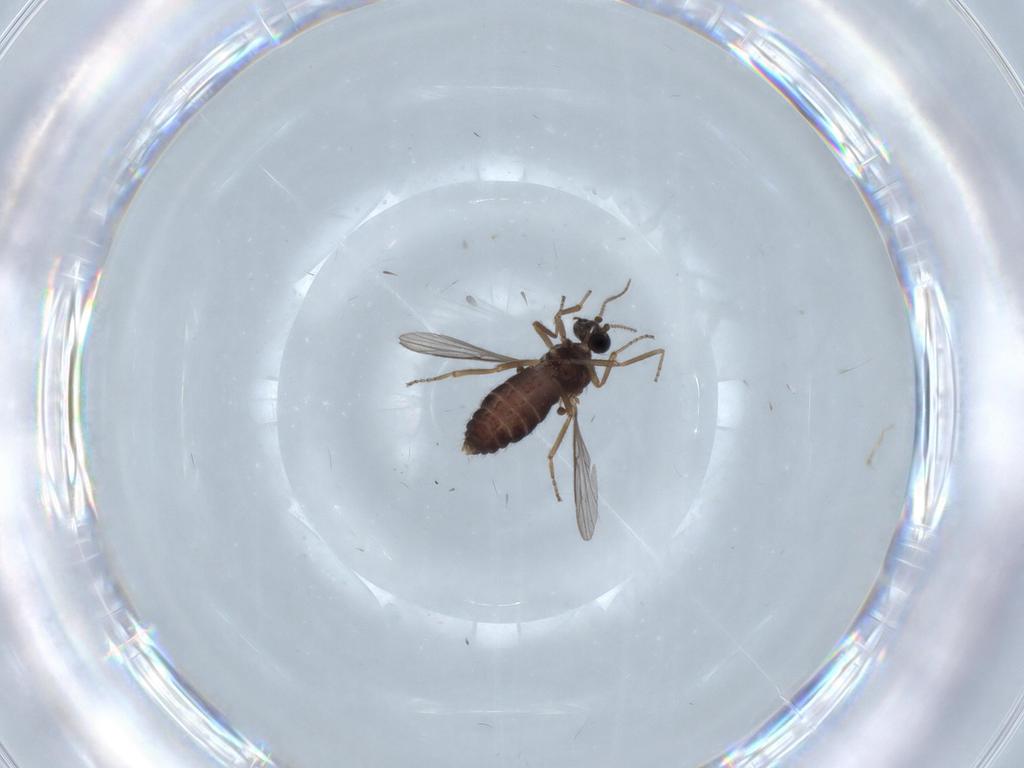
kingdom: Animalia
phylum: Arthropoda
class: Insecta
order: Diptera
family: Ceratopogonidae
